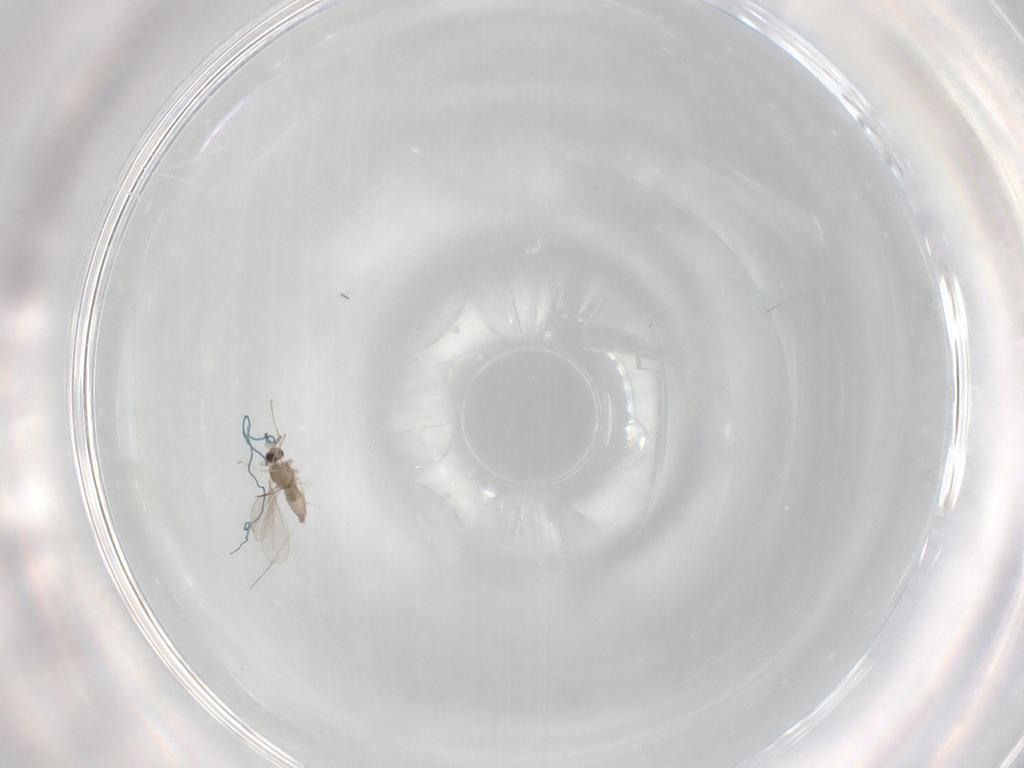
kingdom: Animalia
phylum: Arthropoda
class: Insecta
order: Diptera
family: Cecidomyiidae
